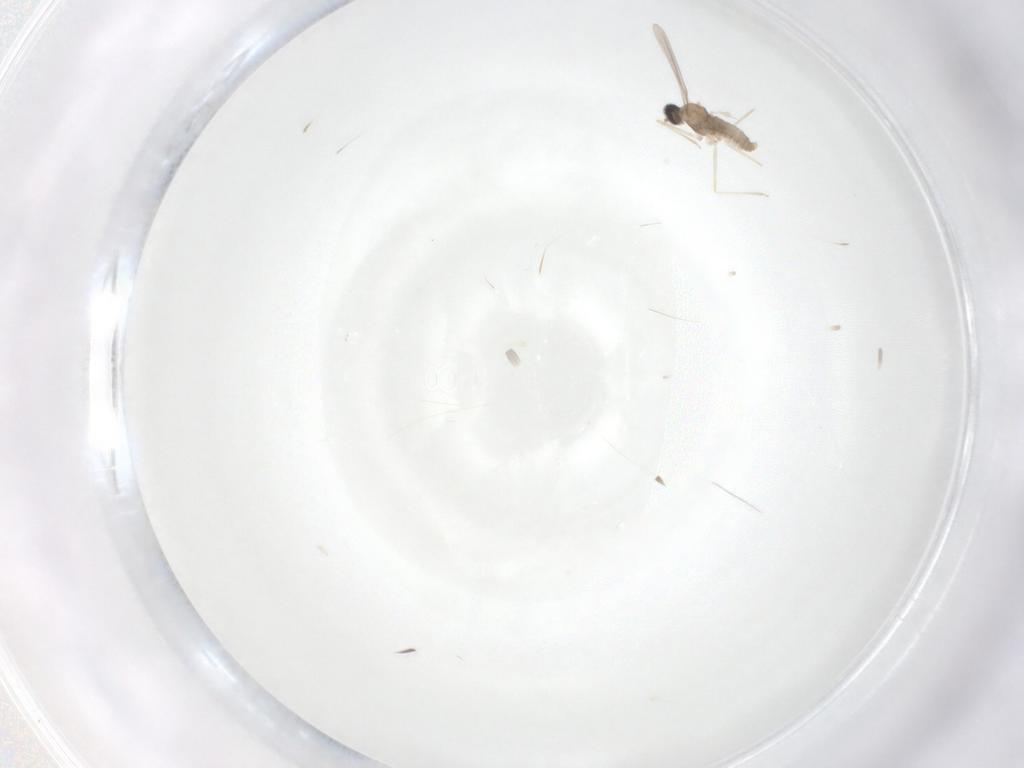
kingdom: Animalia
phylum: Arthropoda
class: Insecta
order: Diptera
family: Cecidomyiidae
